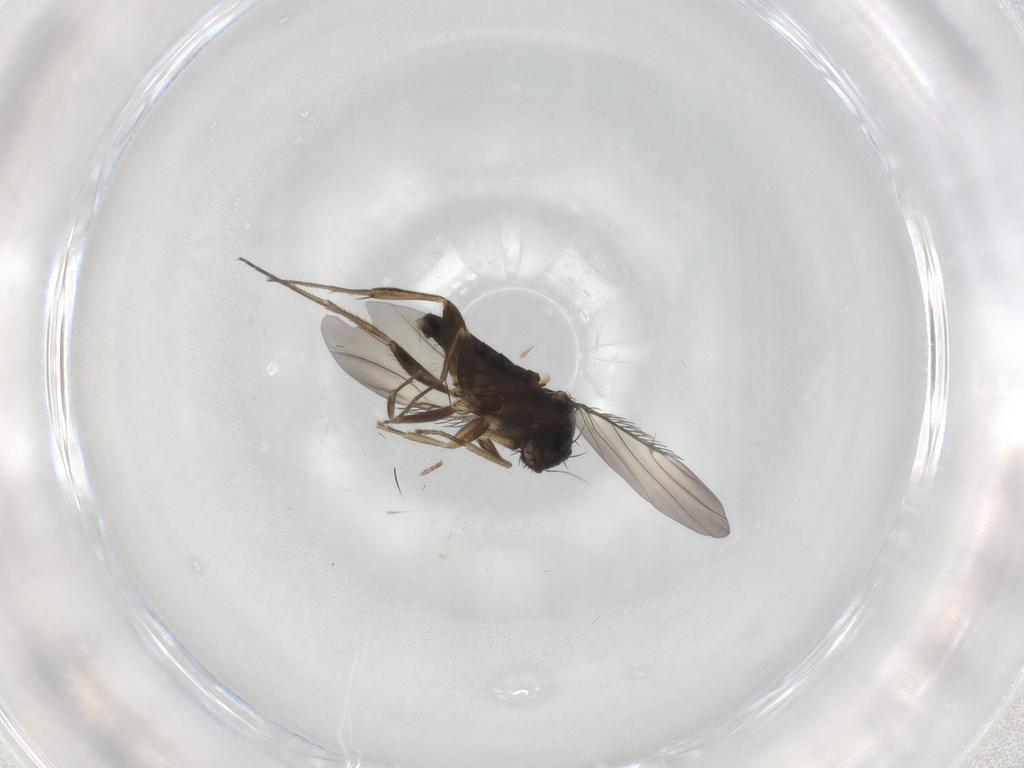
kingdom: Animalia
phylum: Arthropoda
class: Insecta
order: Diptera
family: Phoridae
